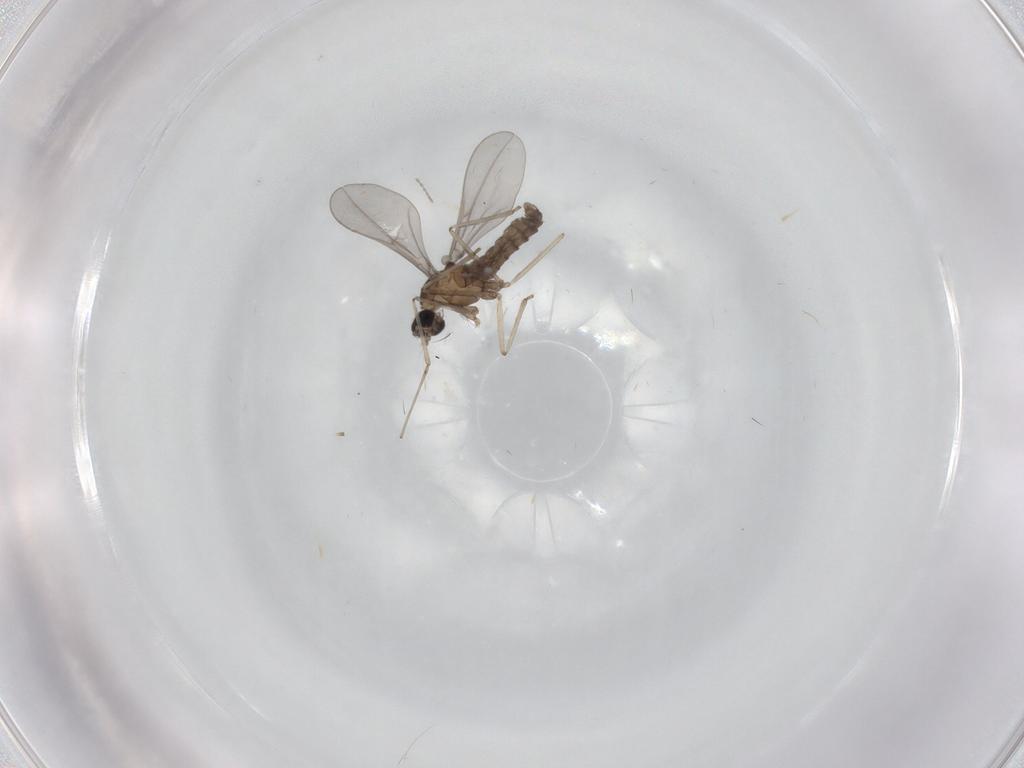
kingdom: Animalia
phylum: Arthropoda
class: Insecta
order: Diptera
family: Cecidomyiidae
